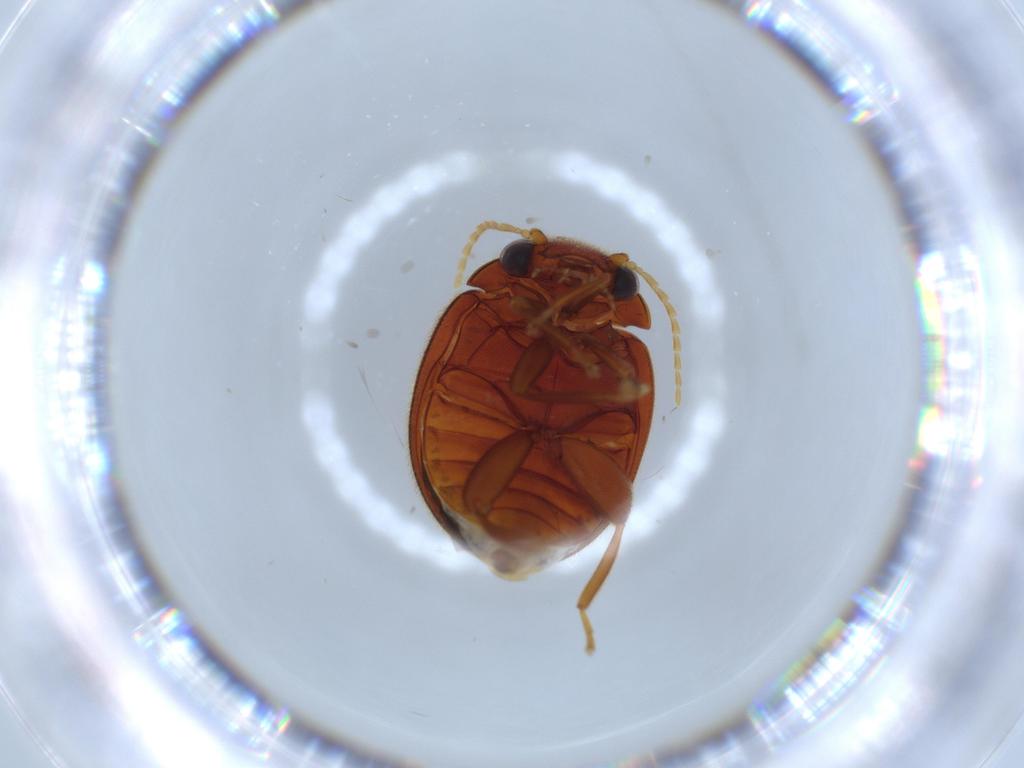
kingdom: Animalia
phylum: Arthropoda
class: Insecta
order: Coleoptera
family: Scirtidae
